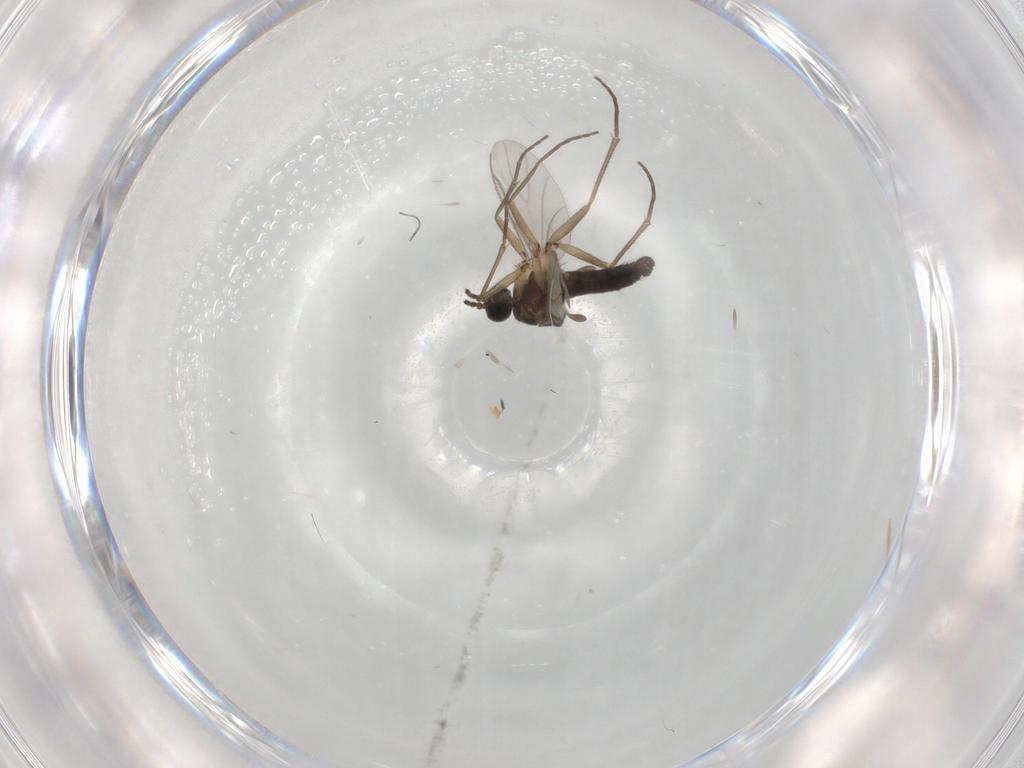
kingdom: Animalia
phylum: Arthropoda
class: Insecta
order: Diptera
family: Sciaridae
